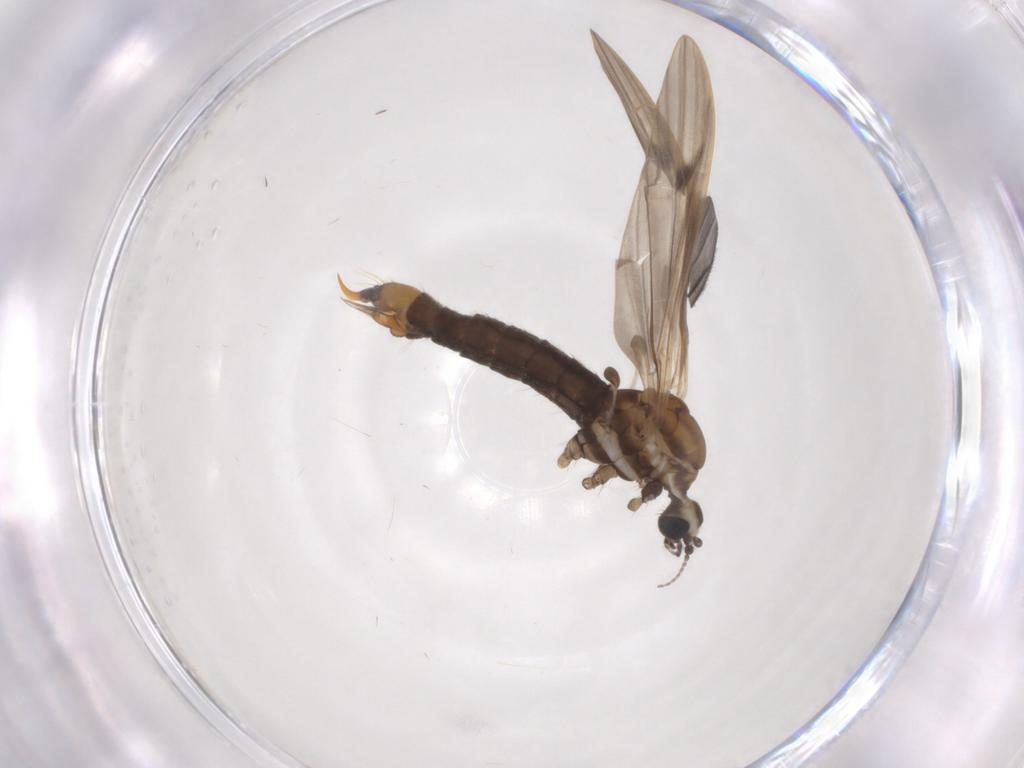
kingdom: Animalia
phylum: Arthropoda
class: Insecta
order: Diptera
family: Limoniidae
